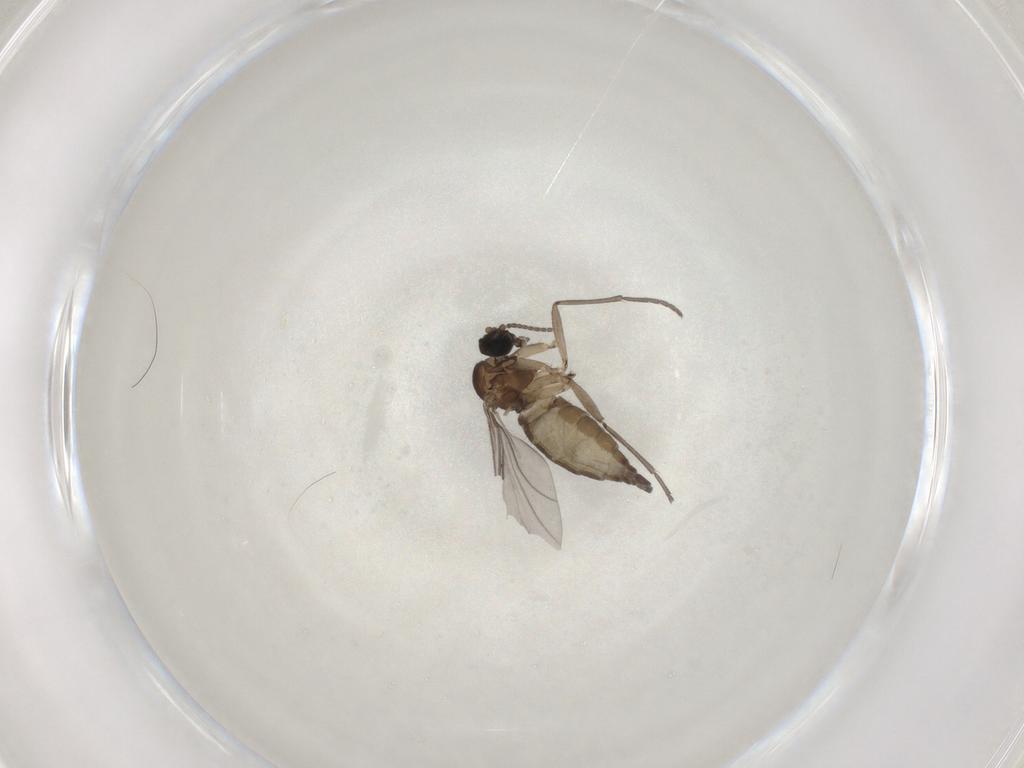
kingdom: Animalia
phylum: Arthropoda
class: Insecta
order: Diptera
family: Sciaridae
